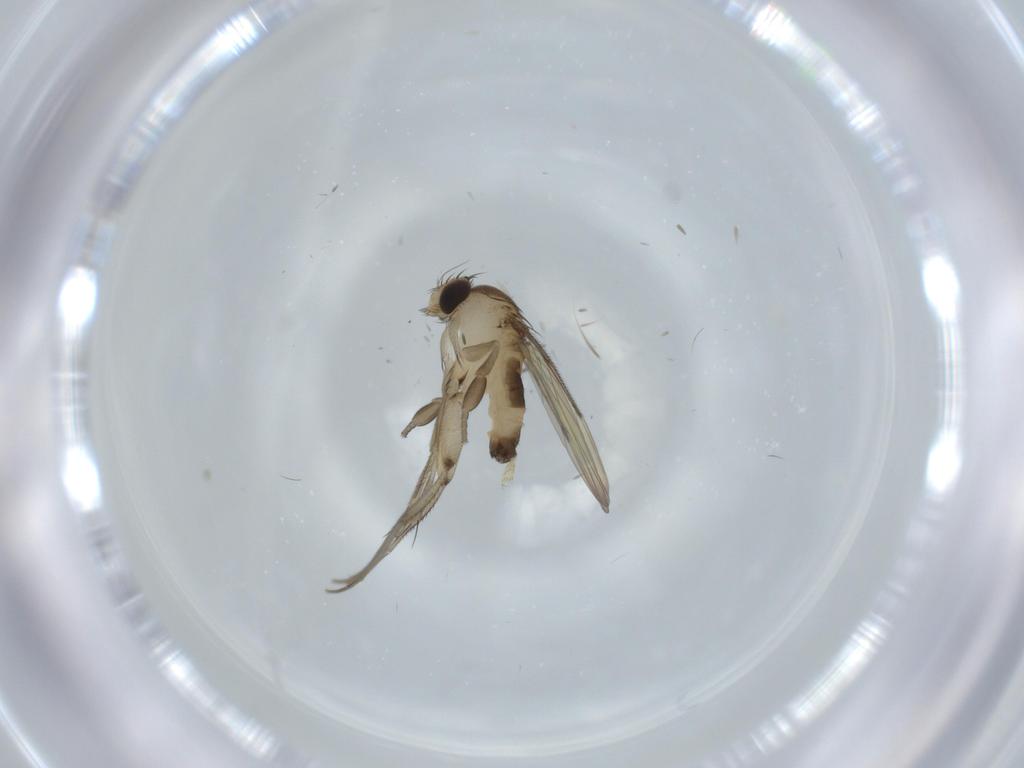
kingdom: Animalia
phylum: Arthropoda
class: Insecta
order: Diptera
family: Phoridae
